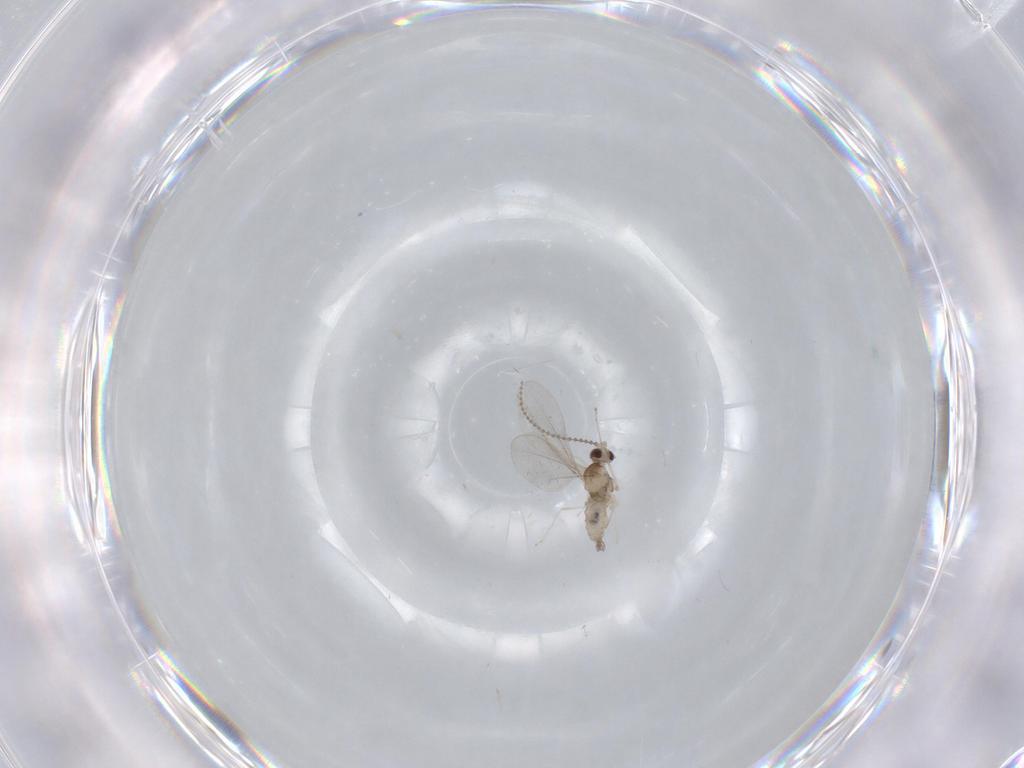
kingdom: Animalia
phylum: Arthropoda
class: Insecta
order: Diptera
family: Cecidomyiidae
